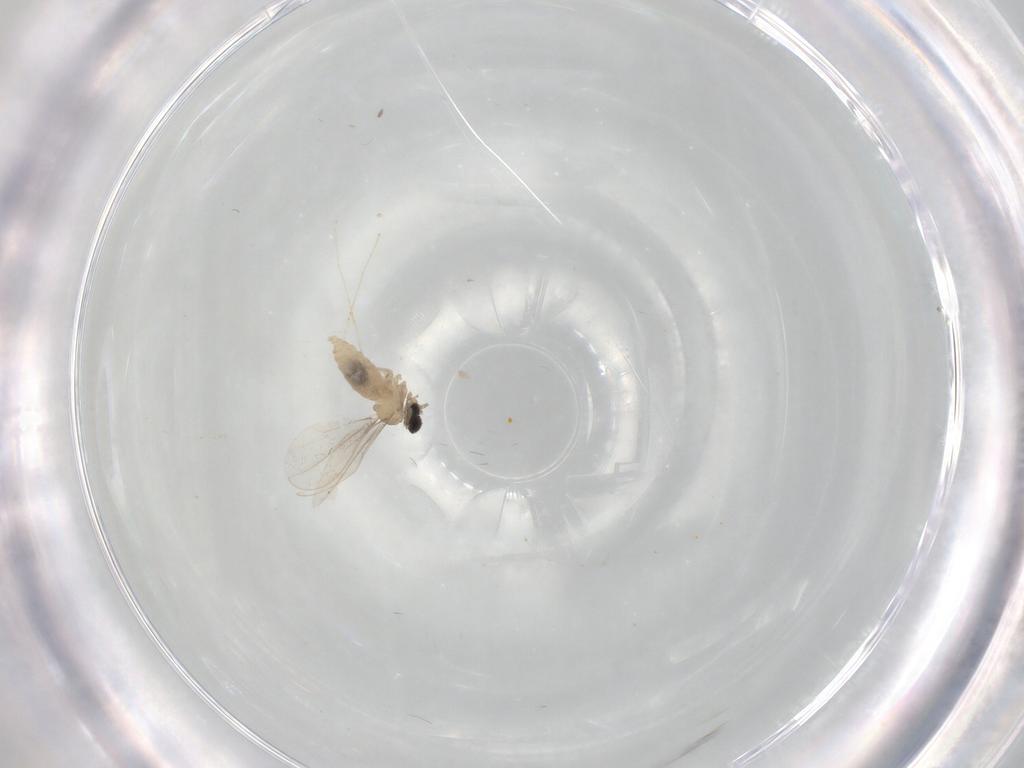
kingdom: Animalia
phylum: Arthropoda
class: Insecta
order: Diptera
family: Cecidomyiidae
